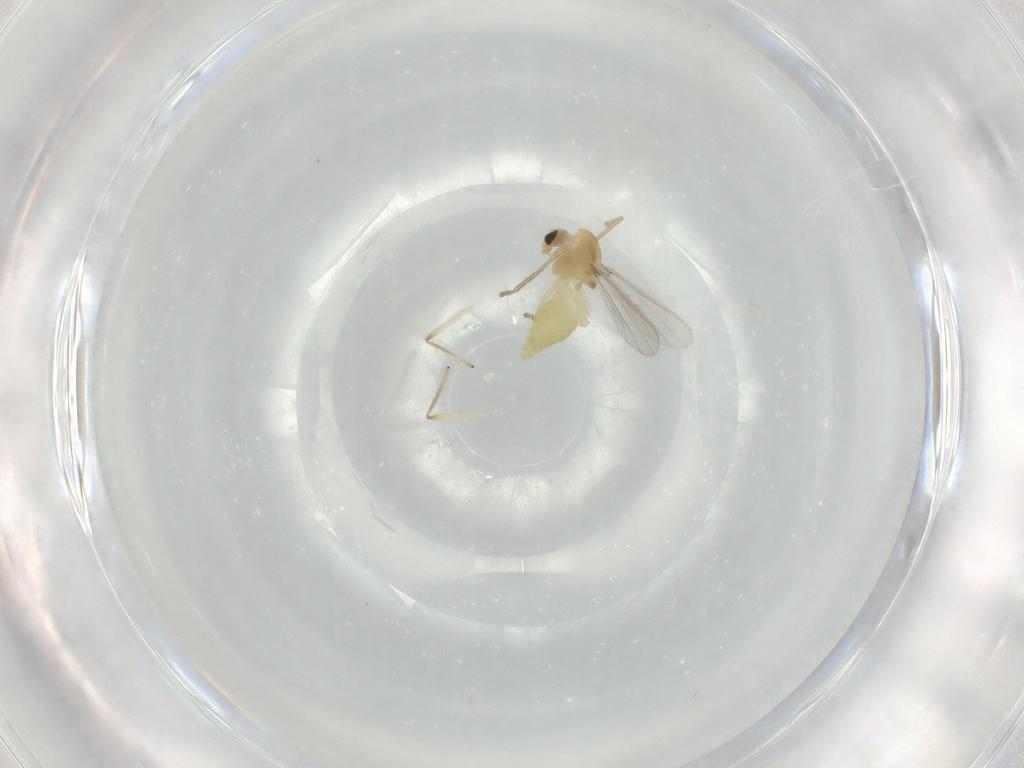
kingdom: Animalia
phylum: Arthropoda
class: Insecta
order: Diptera
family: Chironomidae
